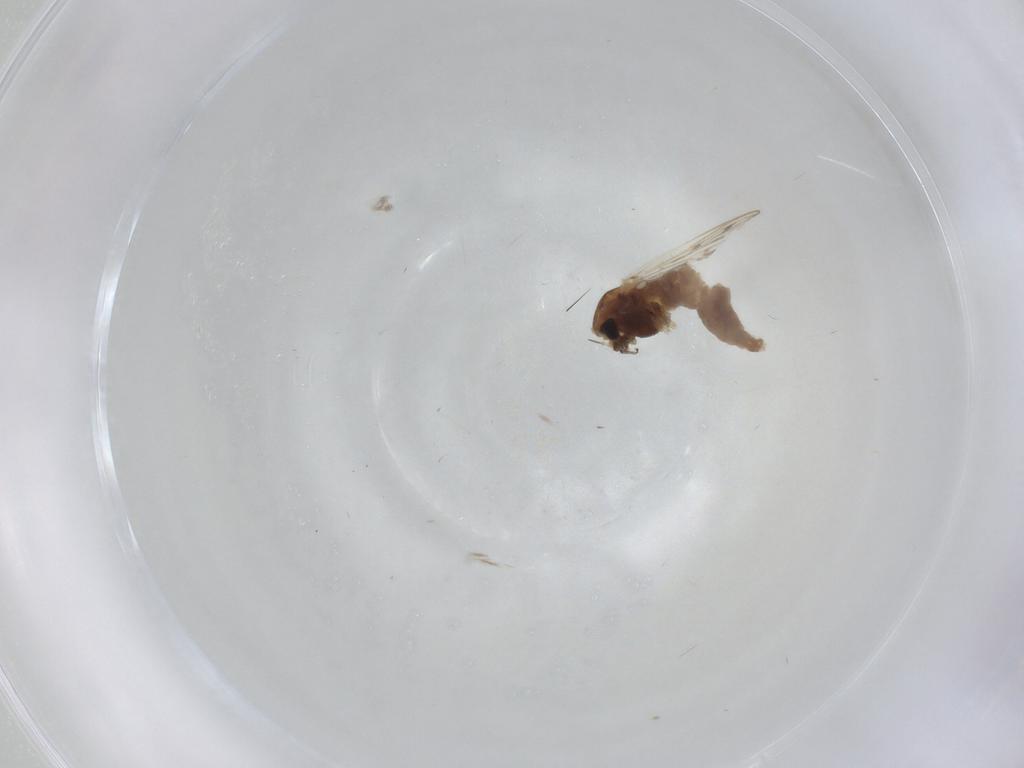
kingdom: Animalia
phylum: Arthropoda
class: Insecta
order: Diptera
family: Chironomidae
